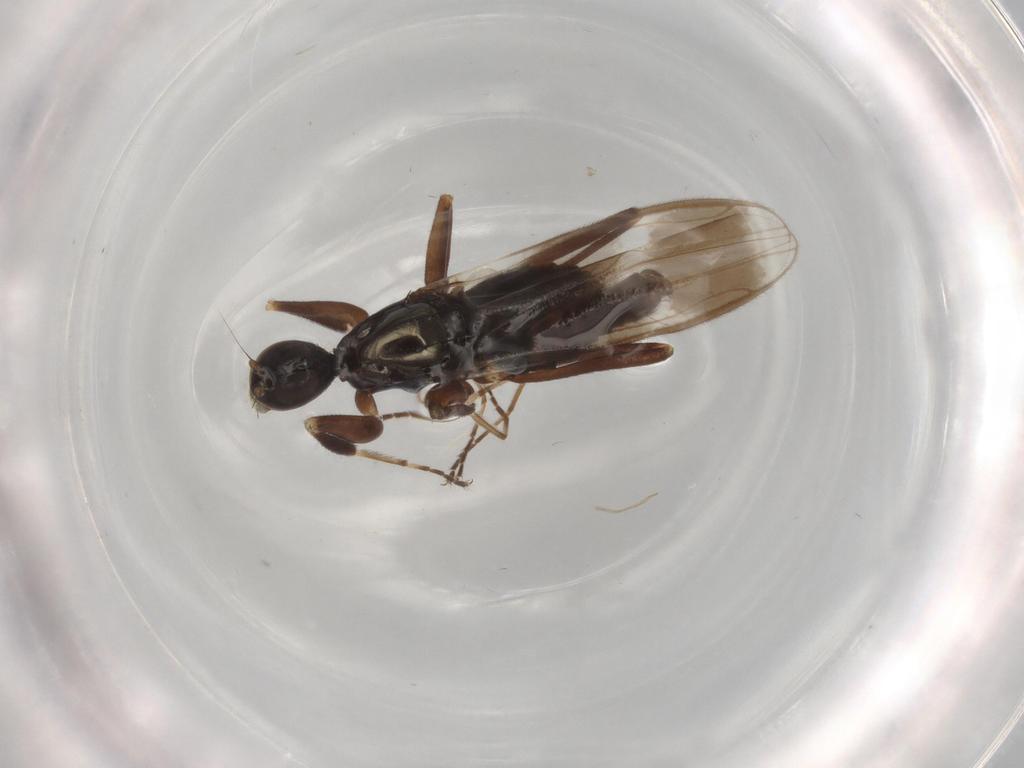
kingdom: Animalia
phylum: Arthropoda
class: Insecta
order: Diptera
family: Hybotidae
